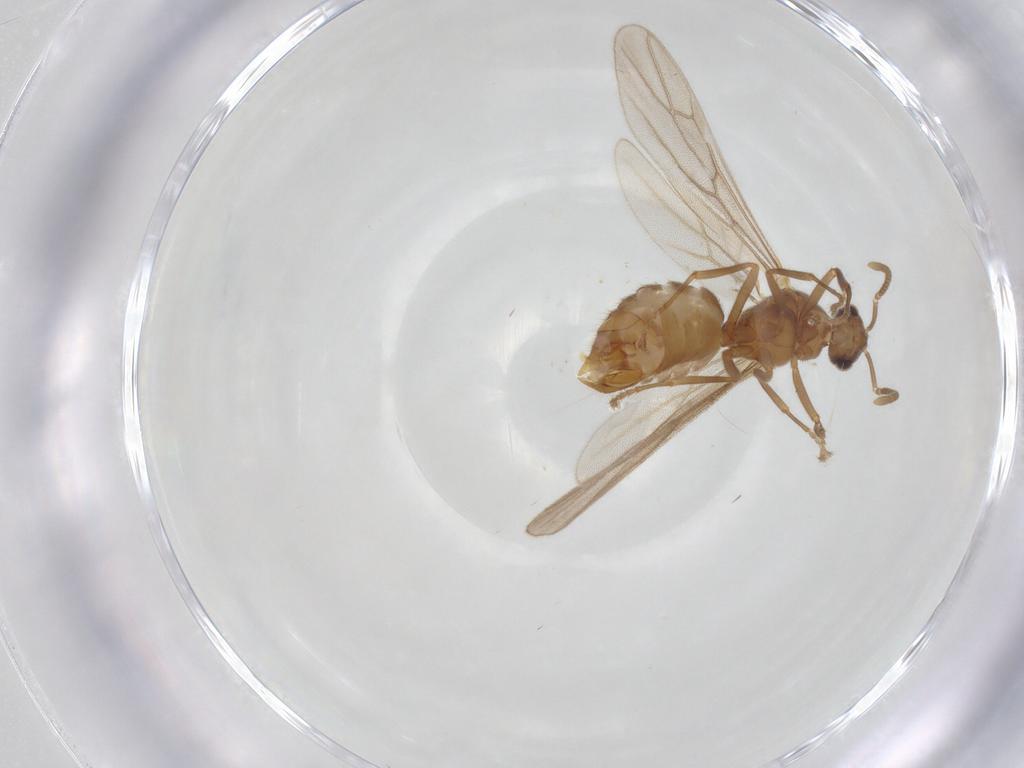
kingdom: Animalia
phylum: Arthropoda
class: Insecta
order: Hymenoptera
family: Formicidae
